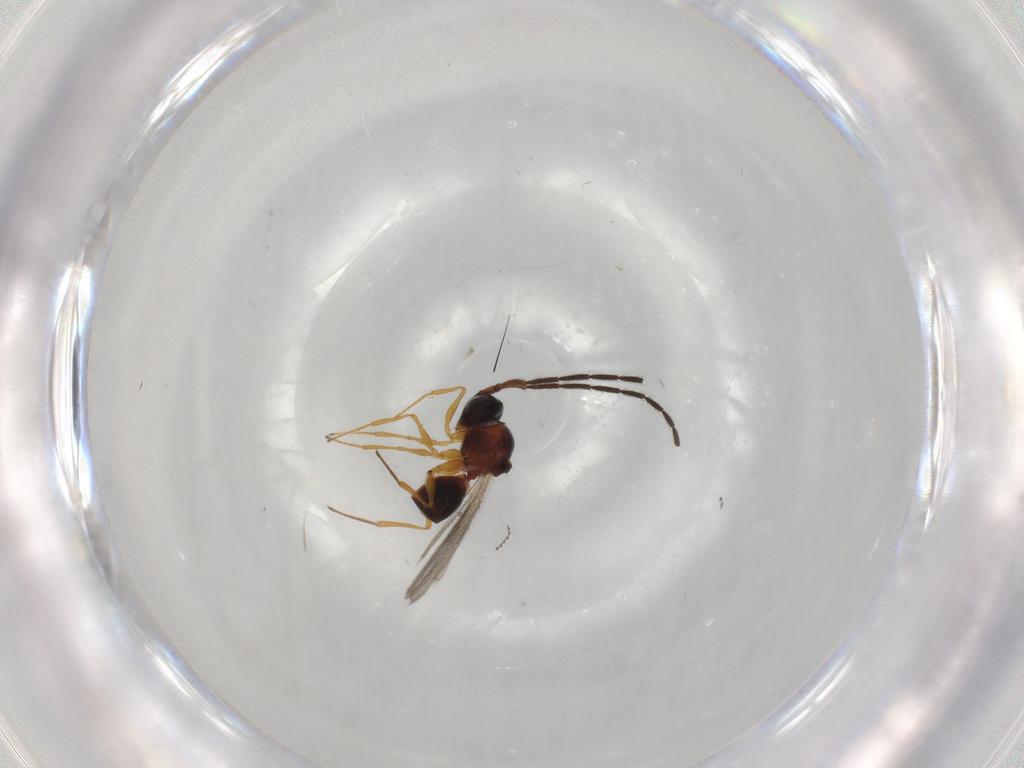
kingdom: Animalia
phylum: Arthropoda
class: Insecta
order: Hymenoptera
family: Figitidae
